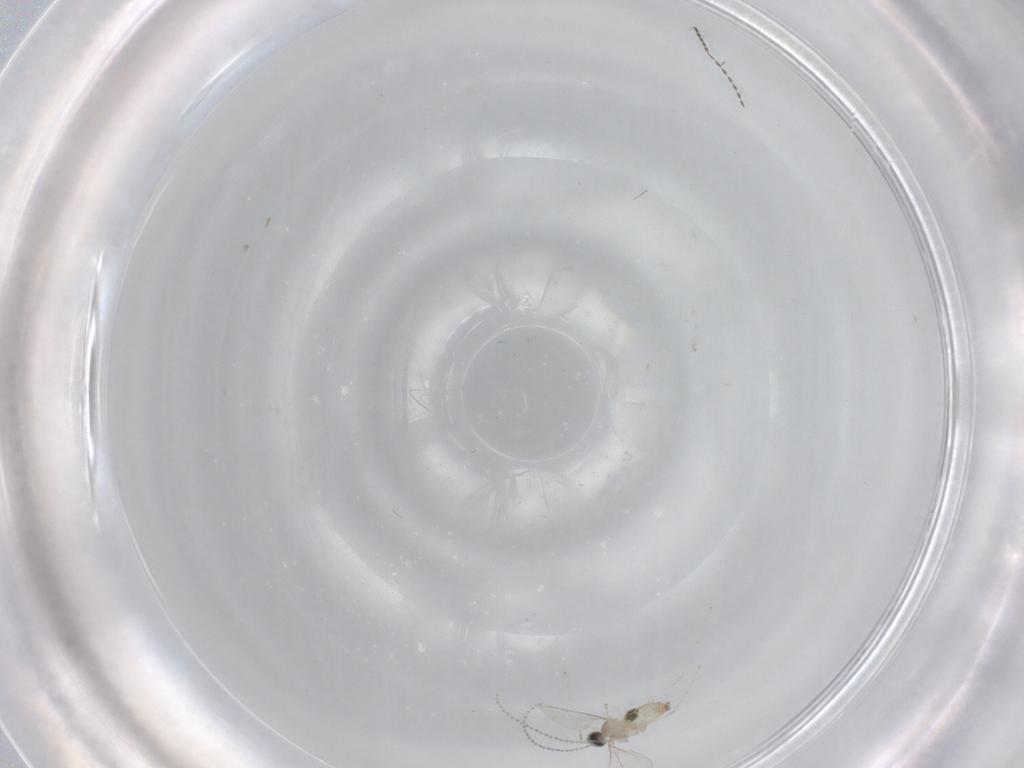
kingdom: Animalia
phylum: Arthropoda
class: Insecta
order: Diptera
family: Cecidomyiidae
